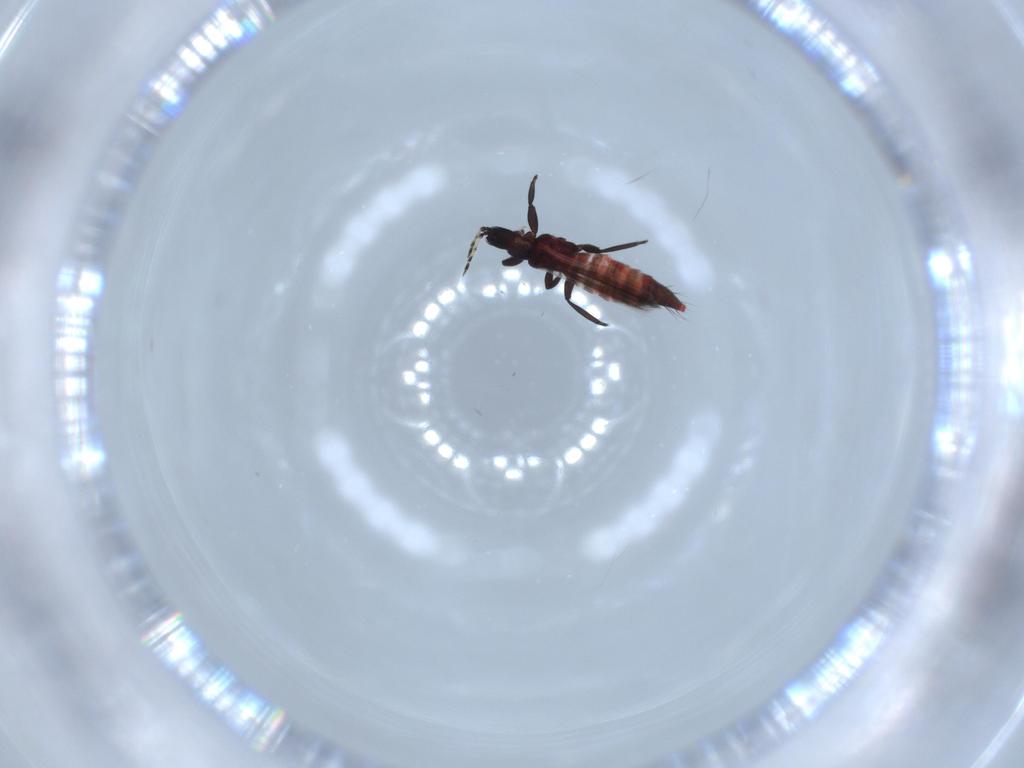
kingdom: Animalia
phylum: Arthropoda
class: Insecta
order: Thysanoptera
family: Aeolothripidae
